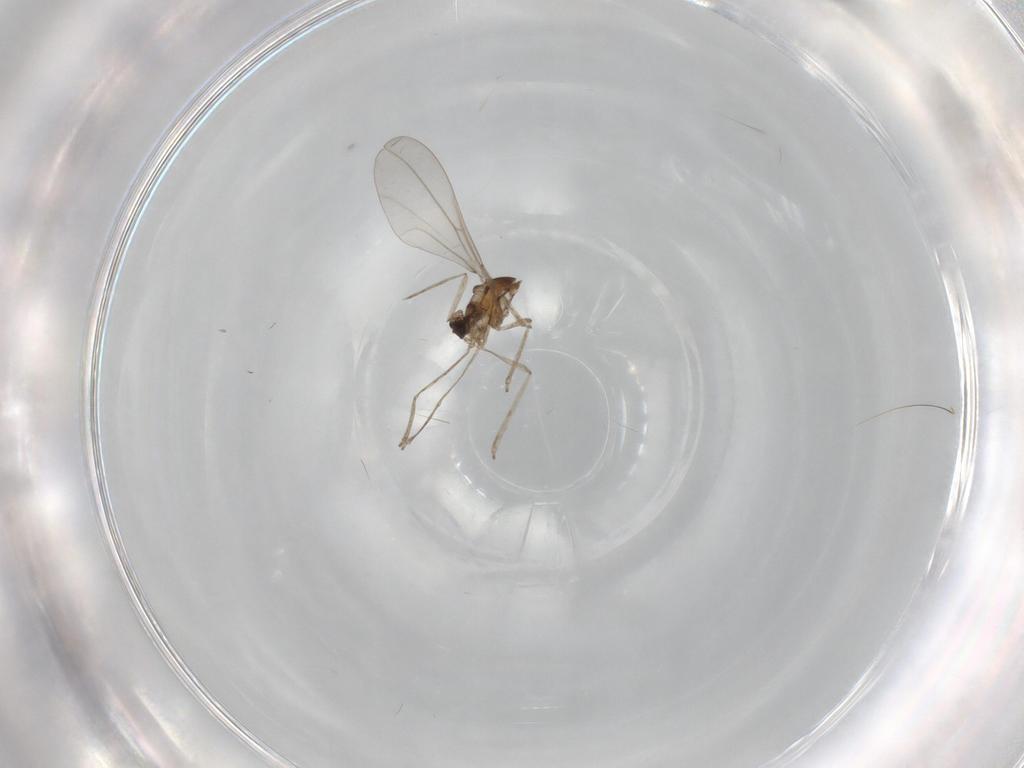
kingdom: Animalia
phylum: Arthropoda
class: Insecta
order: Diptera
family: Cecidomyiidae
